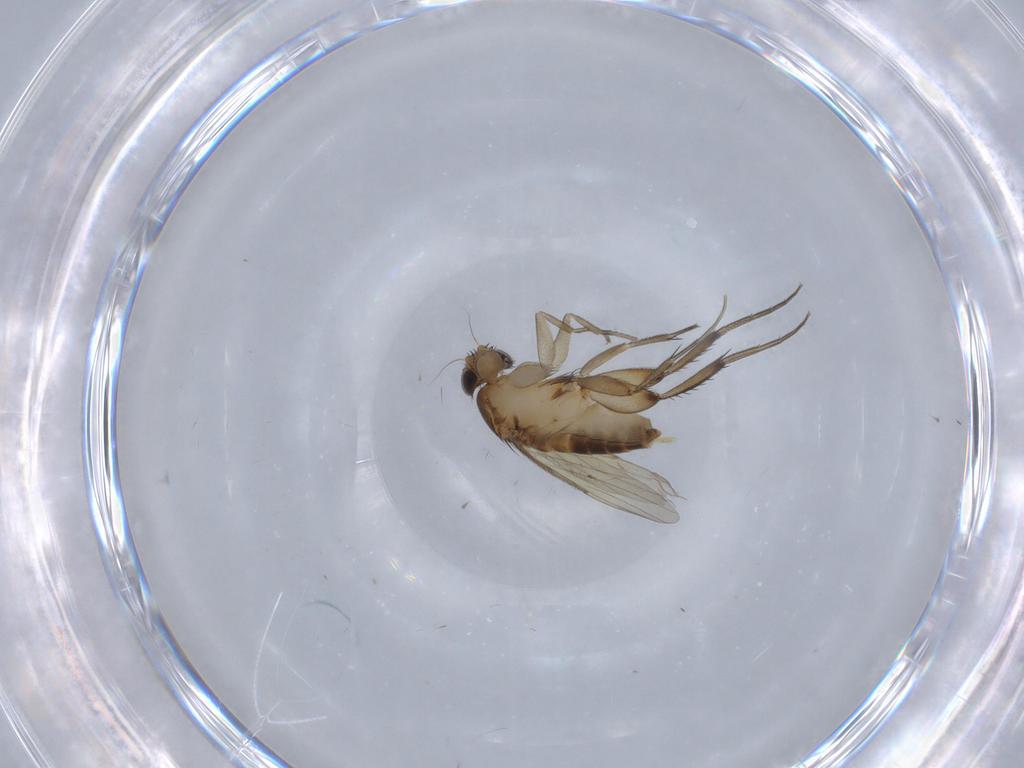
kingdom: Animalia
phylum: Arthropoda
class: Insecta
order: Diptera
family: Phoridae
